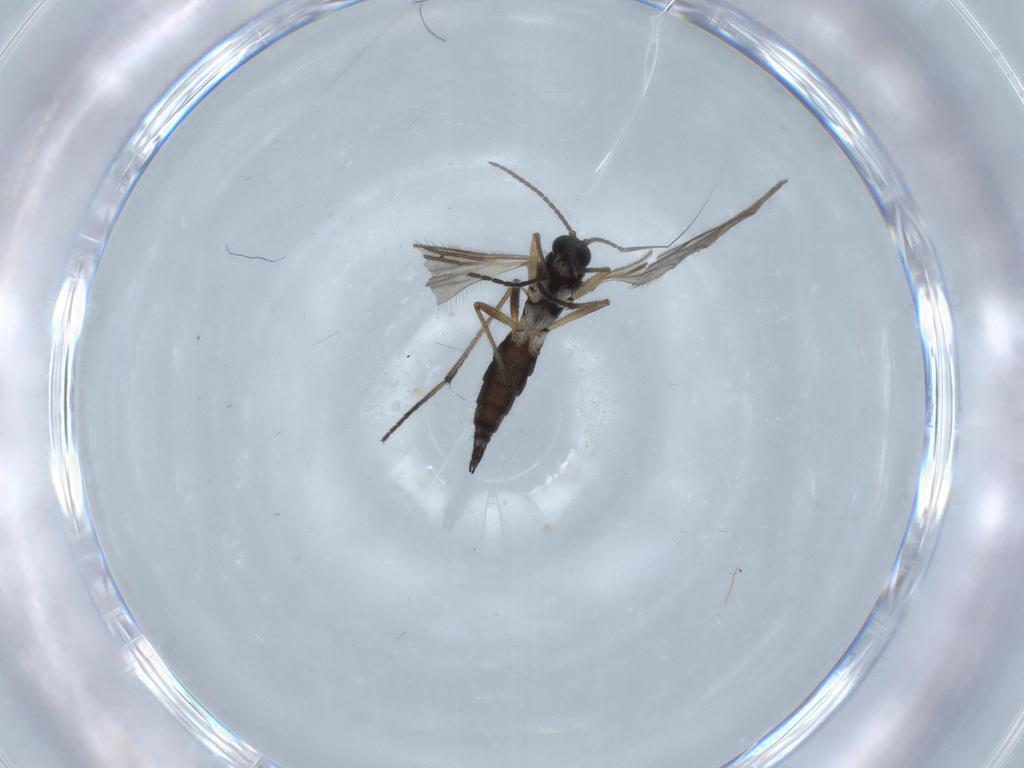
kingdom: Animalia
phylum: Arthropoda
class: Insecta
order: Diptera
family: Sciaridae
